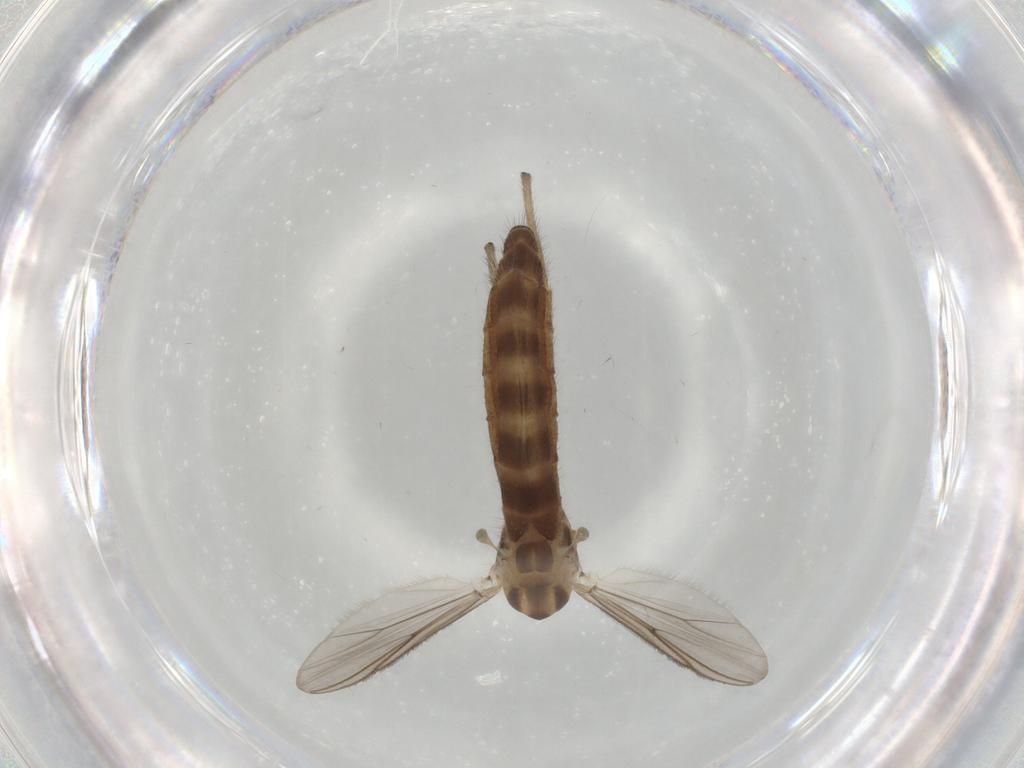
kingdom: Animalia
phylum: Arthropoda
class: Insecta
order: Diptera
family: Chironomidae
